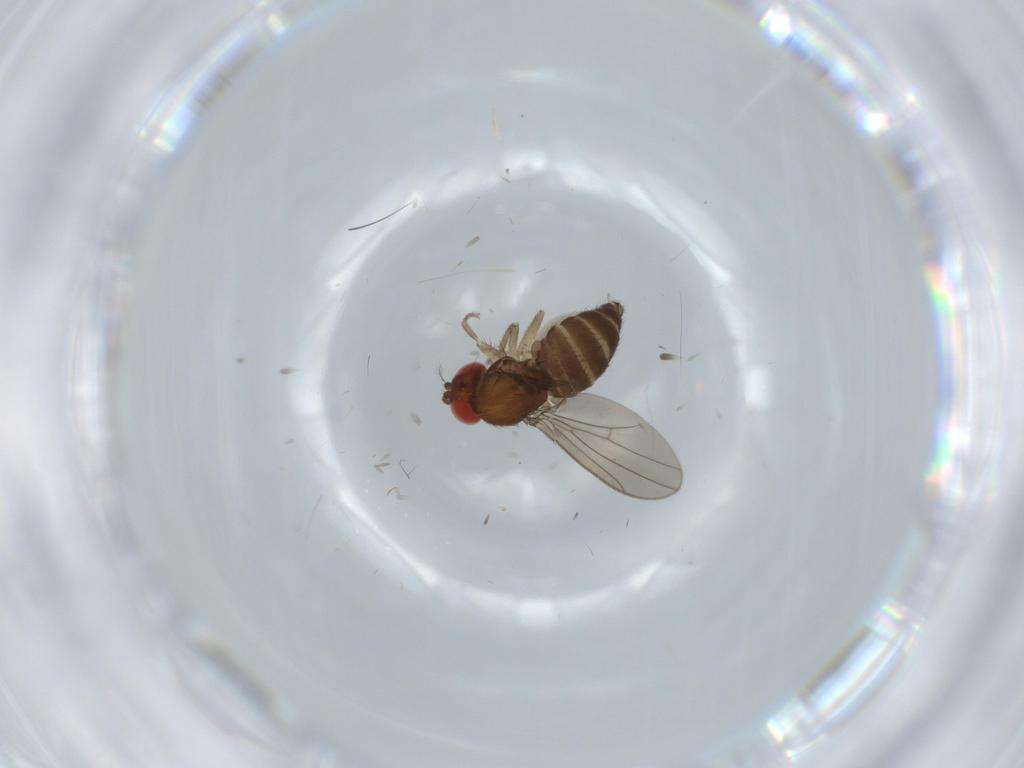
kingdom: Animalia
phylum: Arthropoda
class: Insecta
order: Diptera
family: Drosophilidae
